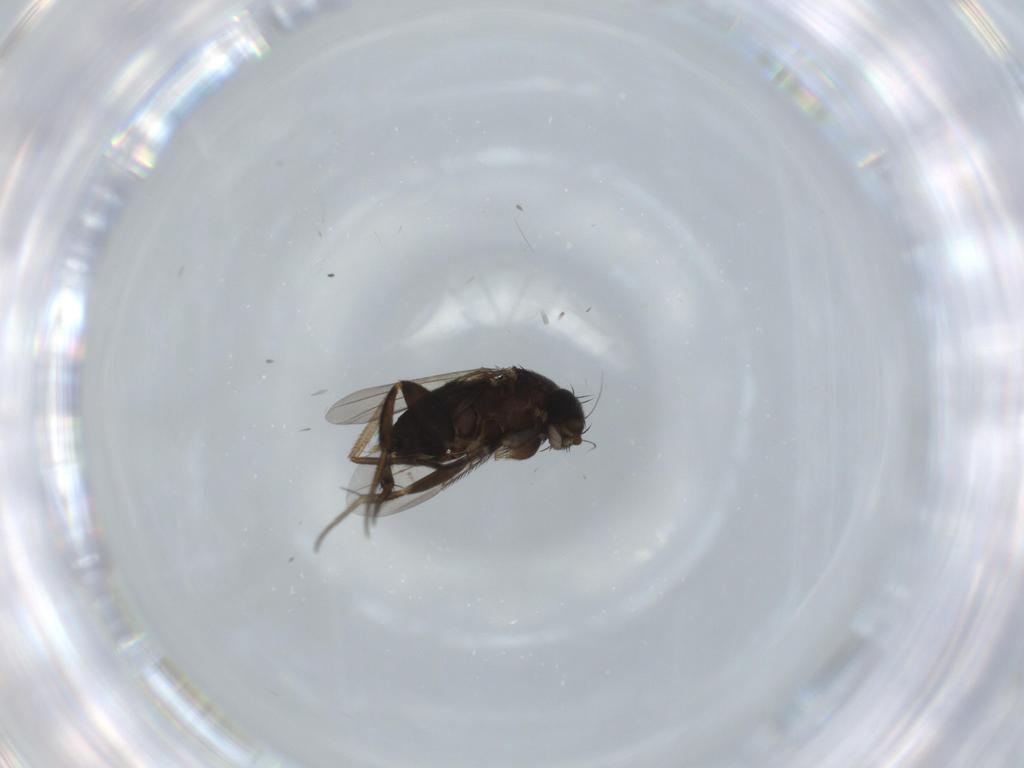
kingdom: Animalia
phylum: Arthropoda
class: Insecta
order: Diptera
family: Phoridae
